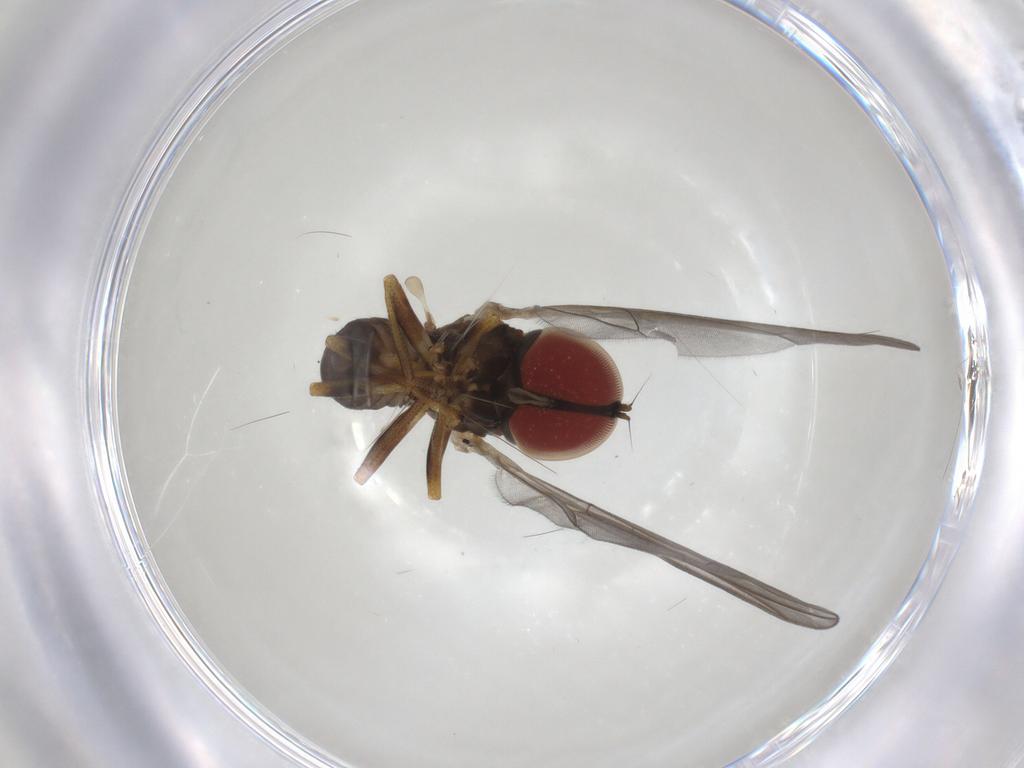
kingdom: Animalia
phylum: Arthropoda
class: Insecta
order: Diptera
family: Pipunculidae
